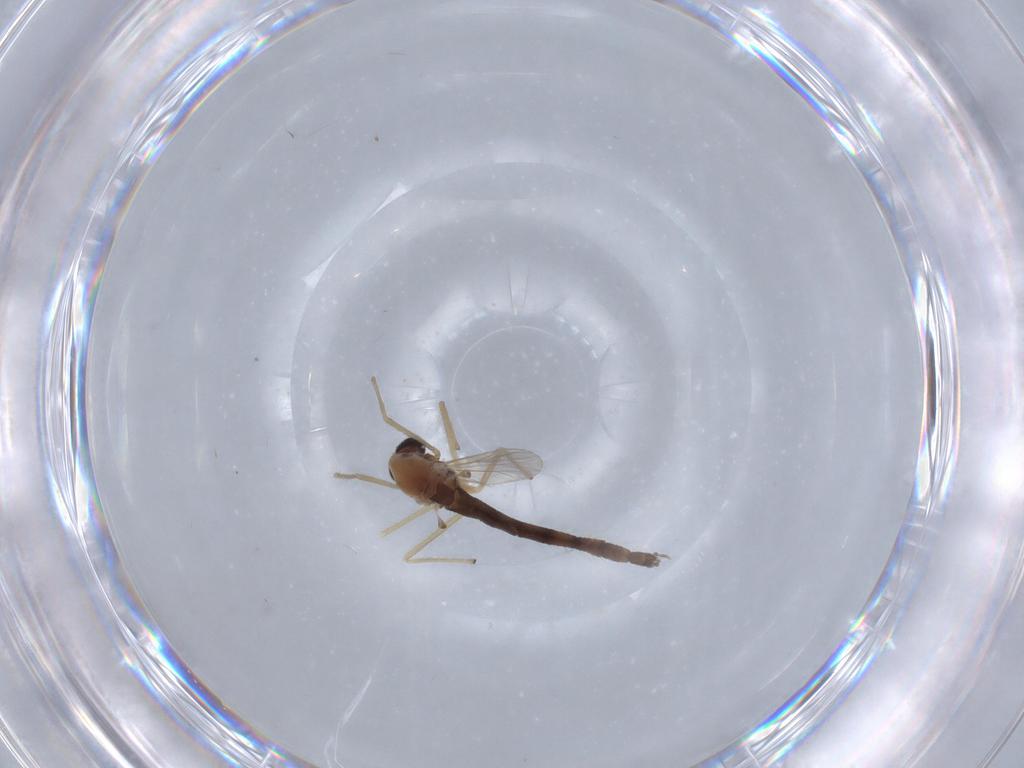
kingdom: Animalia
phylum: Arthropoda
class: Insecta
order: Diptera
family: Chironomidae
